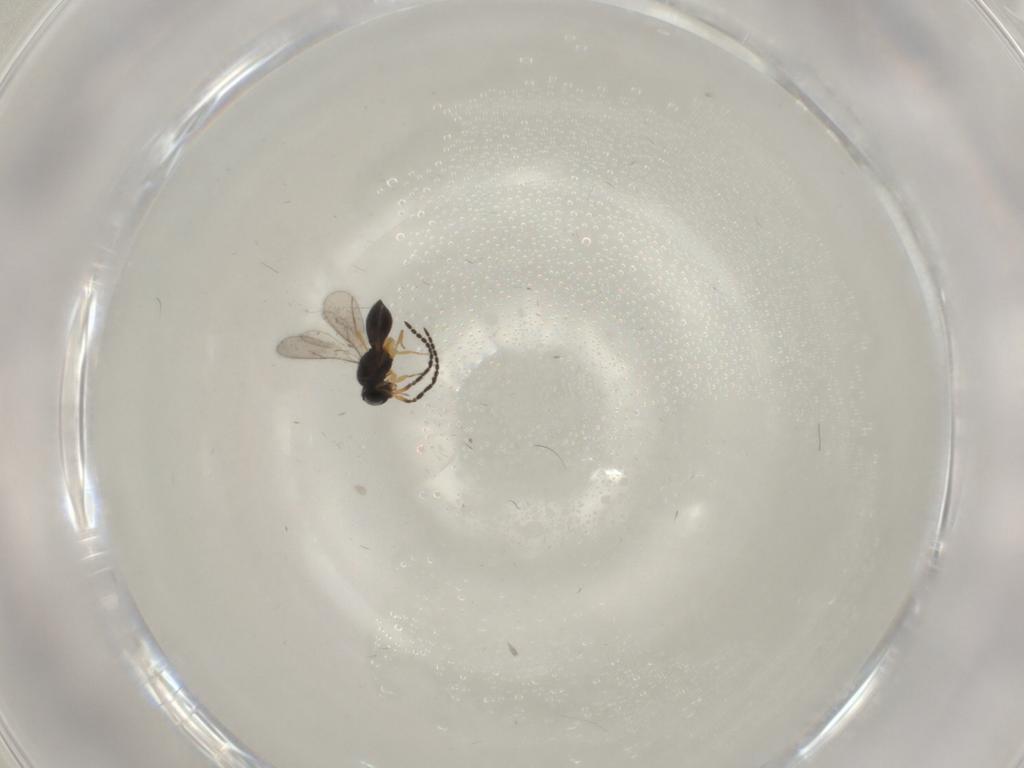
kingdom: Animalia
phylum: Arthropoda
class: Insecta
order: Hymenoptera
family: Scelionidae
